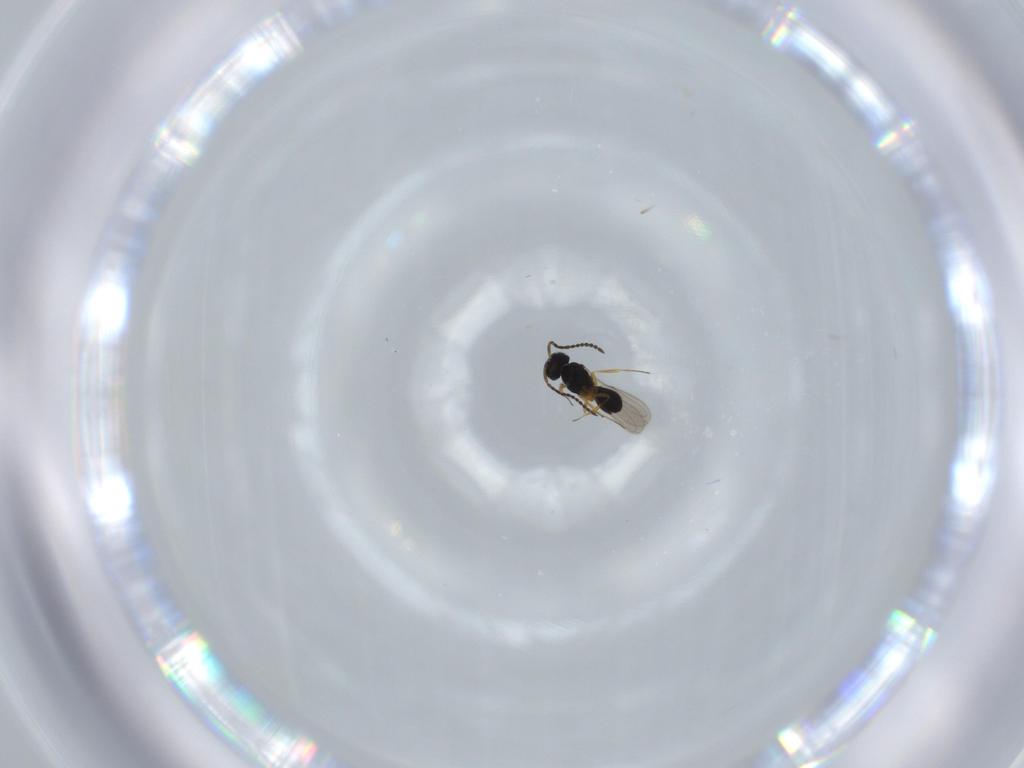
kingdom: Animalia
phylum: Arthropoda
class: Insecta
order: Hymenoptera
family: Scelionidae
